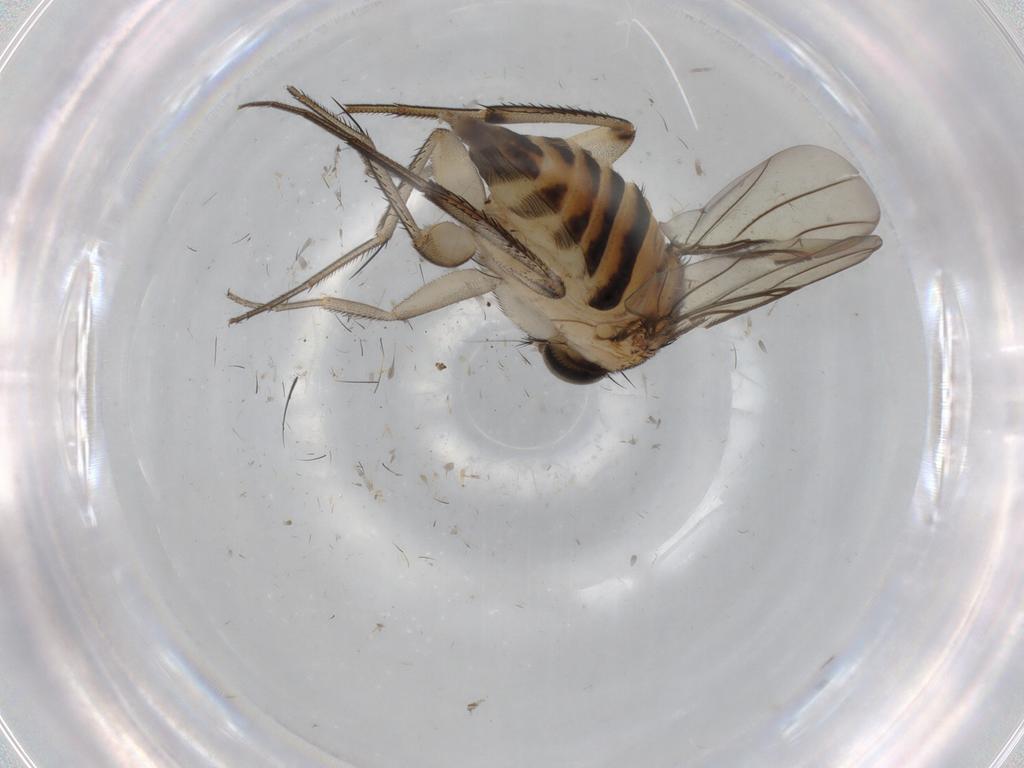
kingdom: Animalia
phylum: Arthropoda
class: Insecta
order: Diptera
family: Phoridae
